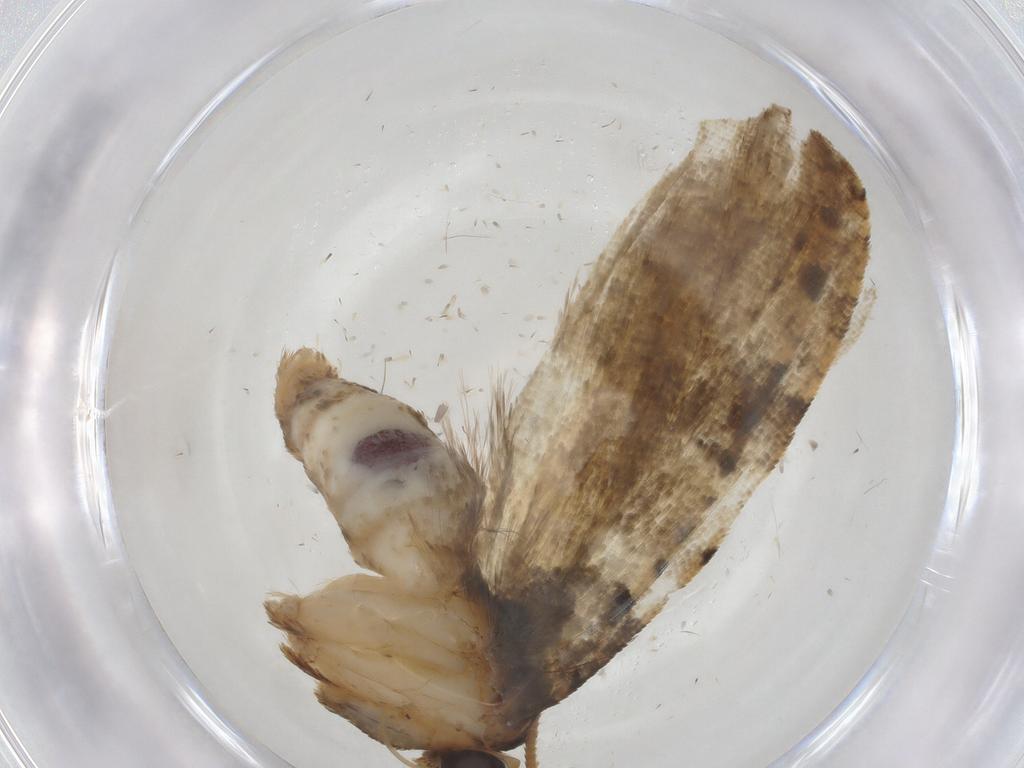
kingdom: Animalia
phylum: Arthropoda
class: Insecta
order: Lepidoptera
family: Tortricidae
